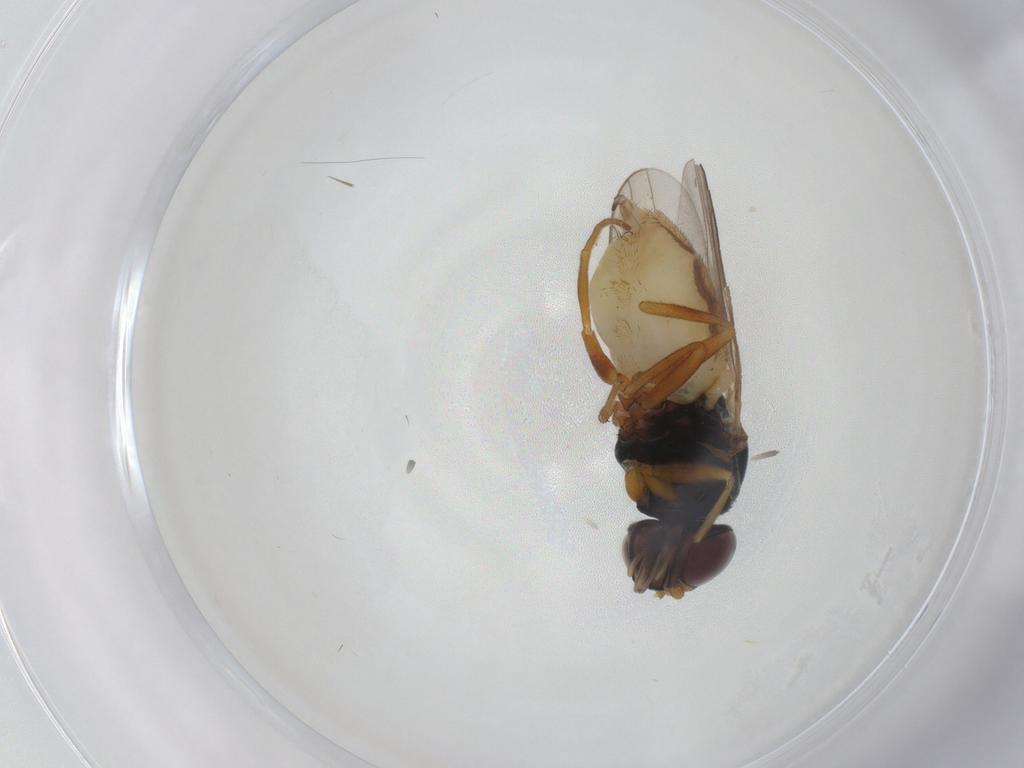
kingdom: Animalia
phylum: Arthropoda
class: Insecta
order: Diptera
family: Chloropidae
